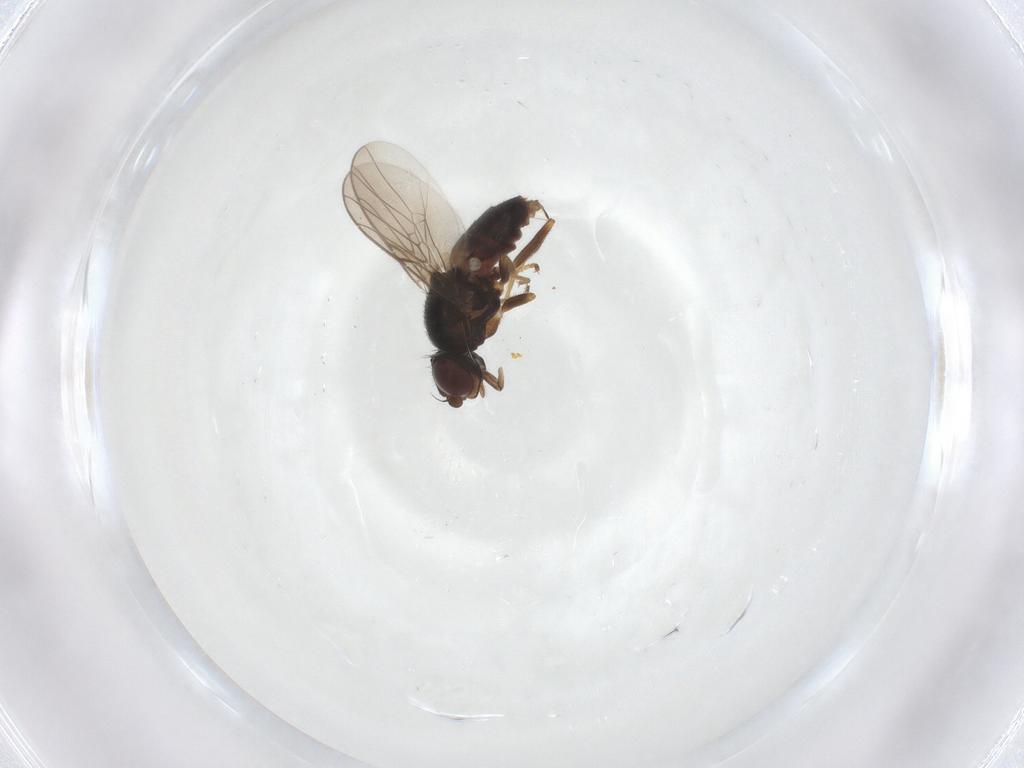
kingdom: Animalia
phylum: Arthropoda
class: Insecta
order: Diptera
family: Chloropidae
